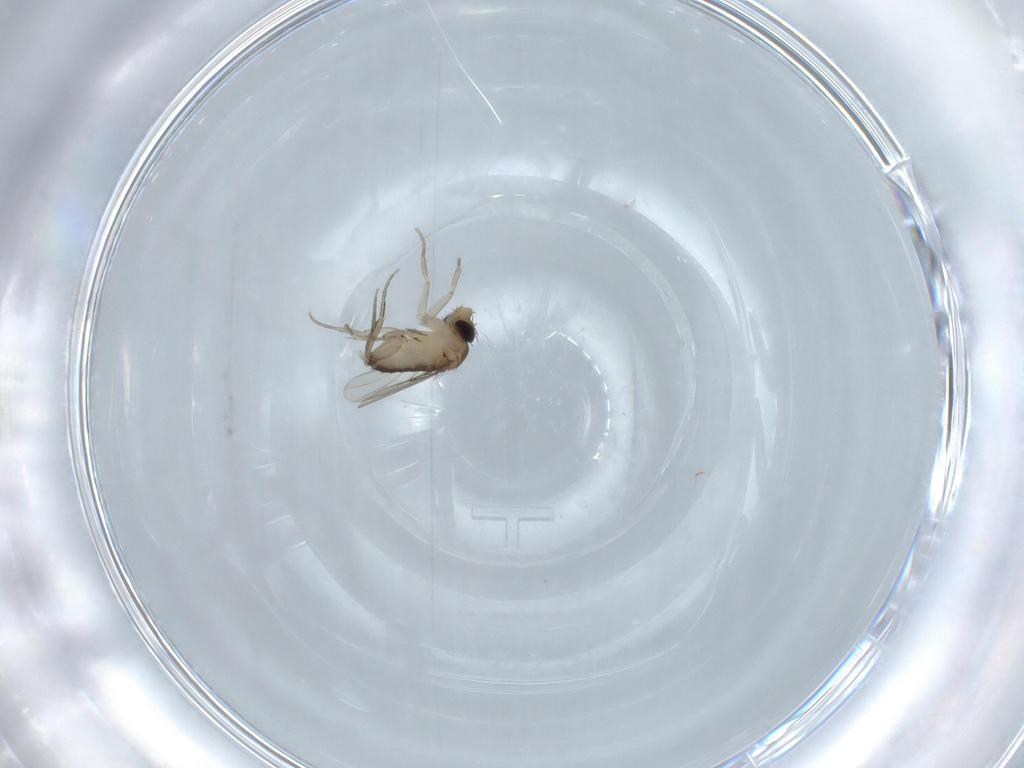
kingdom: Animalia
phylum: Arthropoda
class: Insecta
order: Diptera
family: Phoridae
